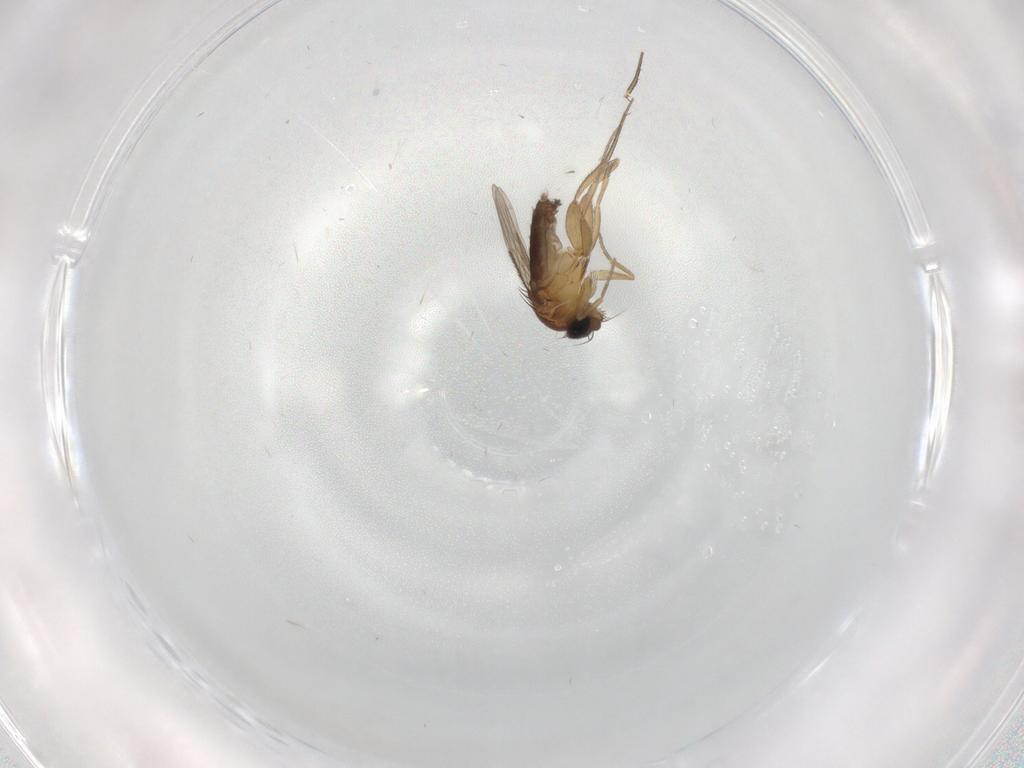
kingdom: Animalia
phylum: Arthropoda
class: Insecta
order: Diptera
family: Phoridae
